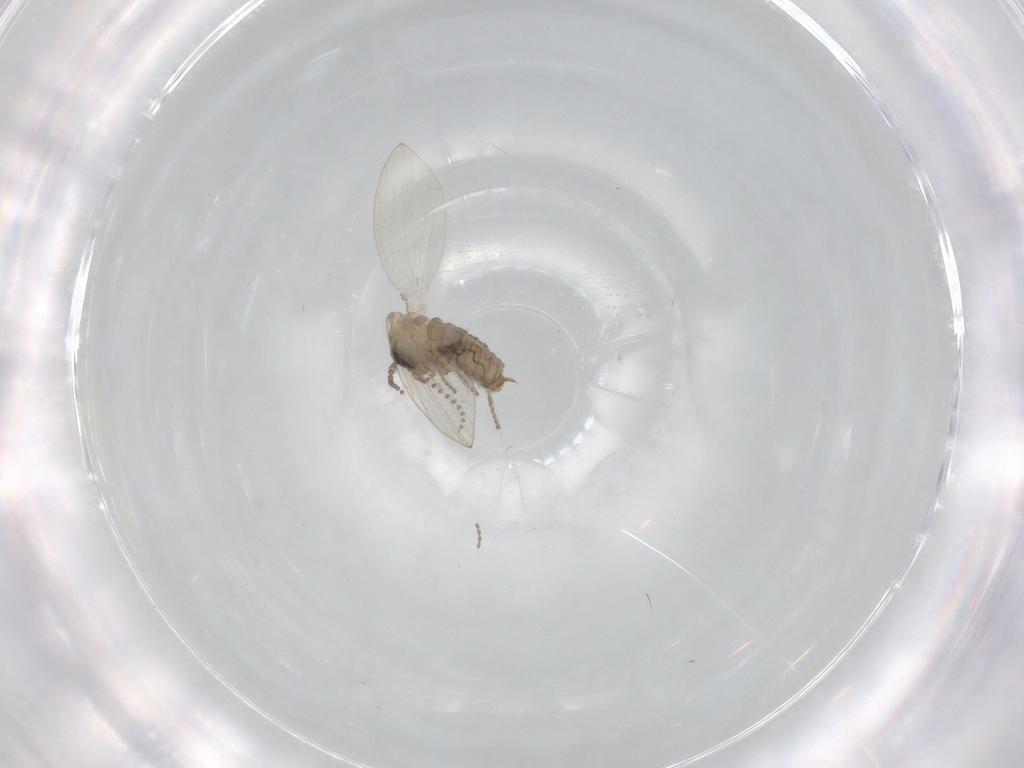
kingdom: Animalia
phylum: Arthropoda
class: Insecta
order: Diptera
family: Psychodidae
